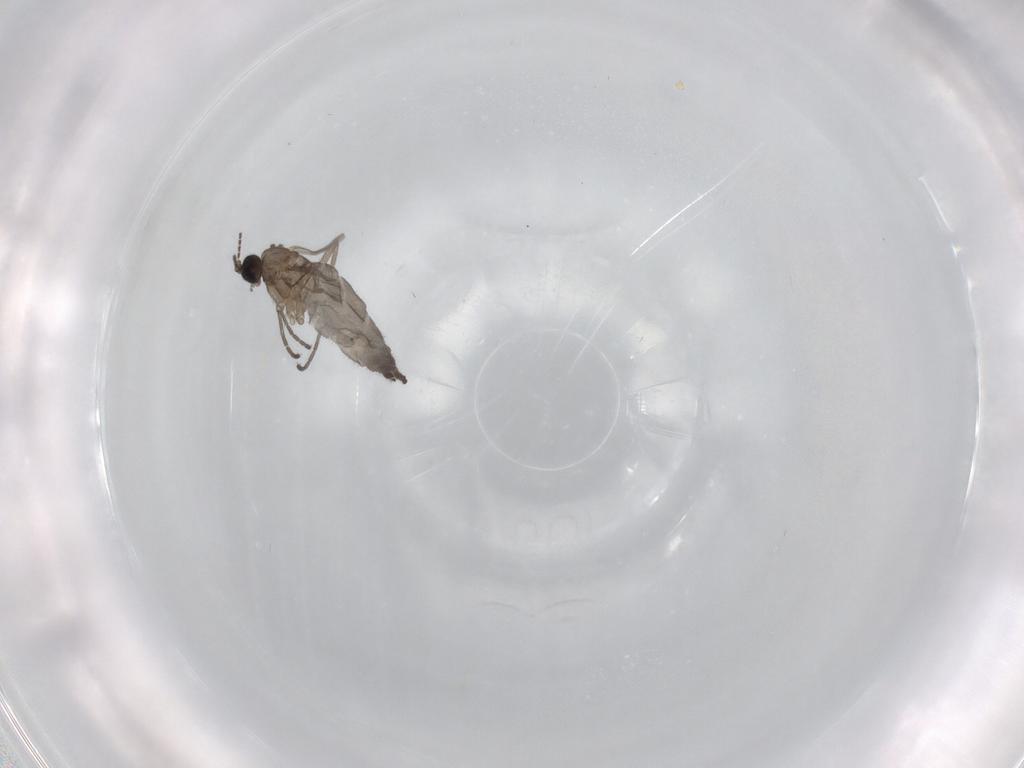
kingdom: Animalia
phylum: Arthropoda
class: Insecta
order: Diptera
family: Sciaridae
